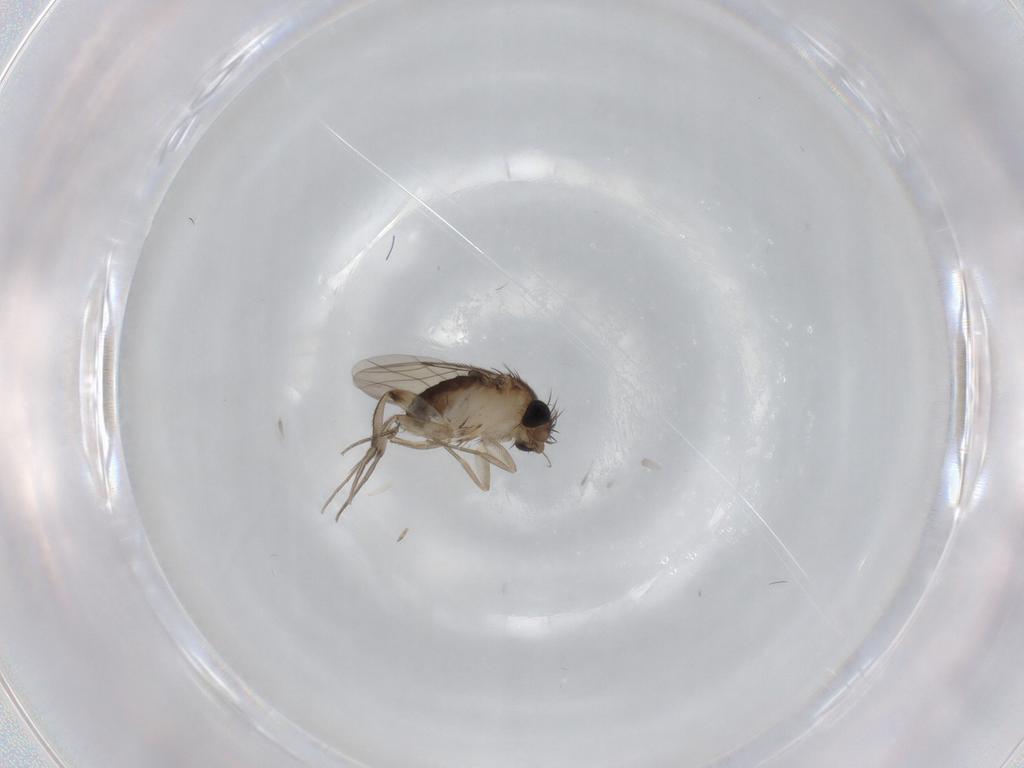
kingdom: Animalia
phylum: Arthropoda
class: Insecta
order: Diptera
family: Phoridae
